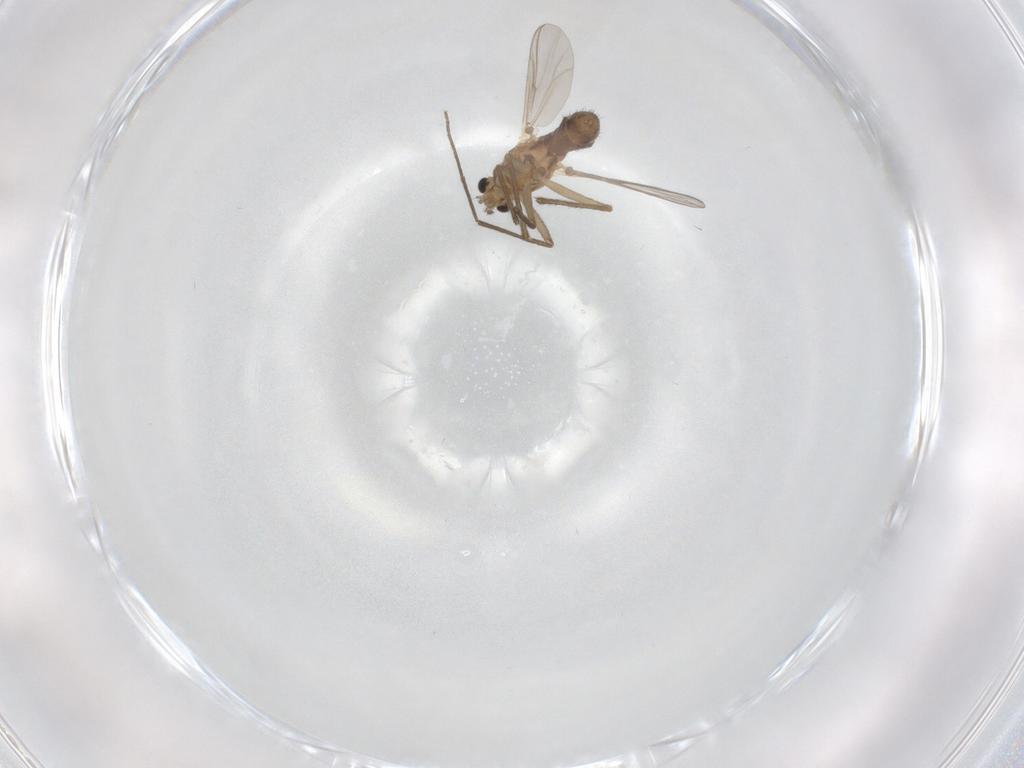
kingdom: Animalia
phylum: Arthropoda
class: Insecta
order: Diptera
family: Chironomidae
